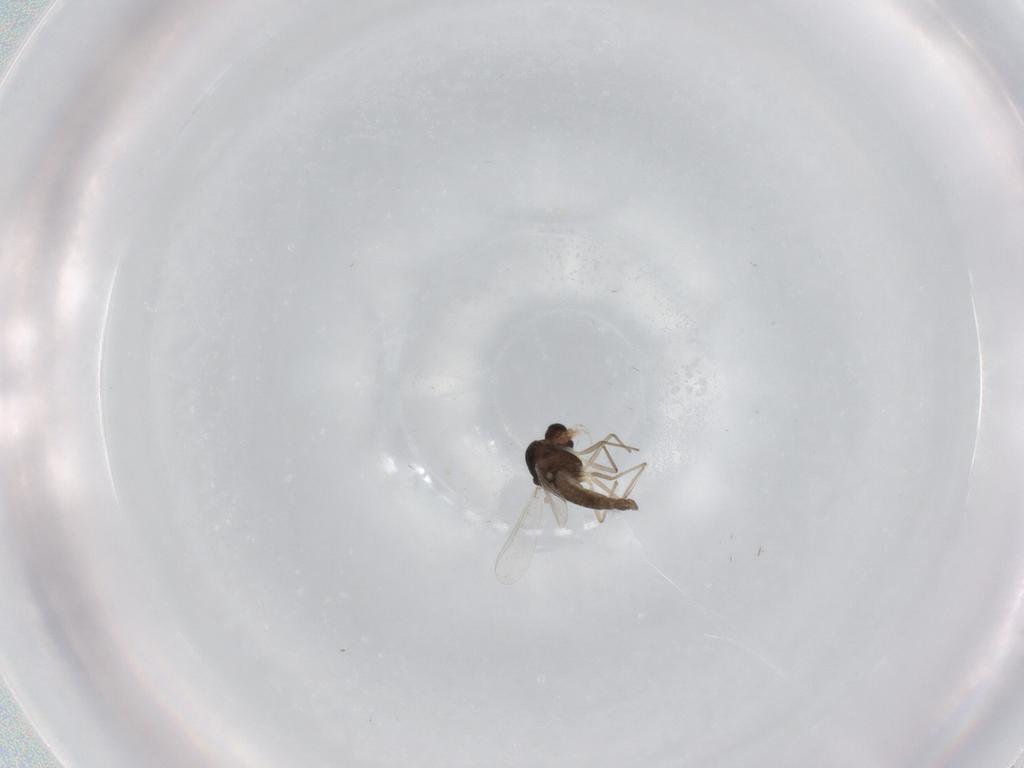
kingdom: Animalia
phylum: Arthropoda
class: Insecta
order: Diptera
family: Chironomidae
